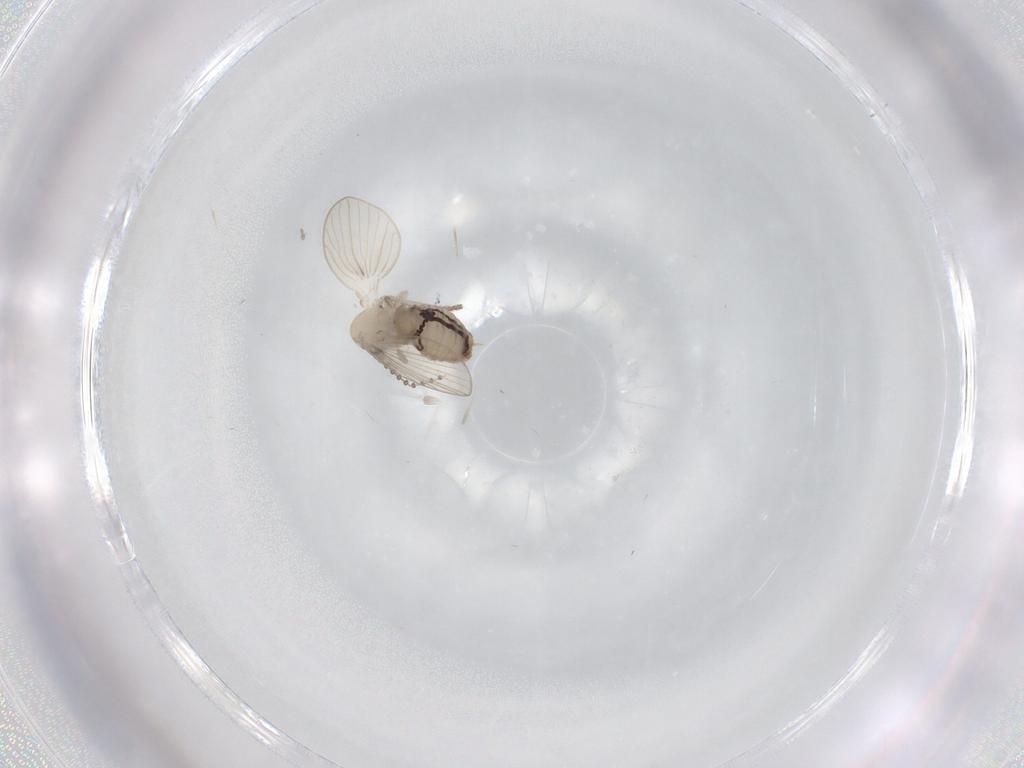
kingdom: Animalia
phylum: Arthropoda
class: Insecta
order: Diptera
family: Psychodidae
